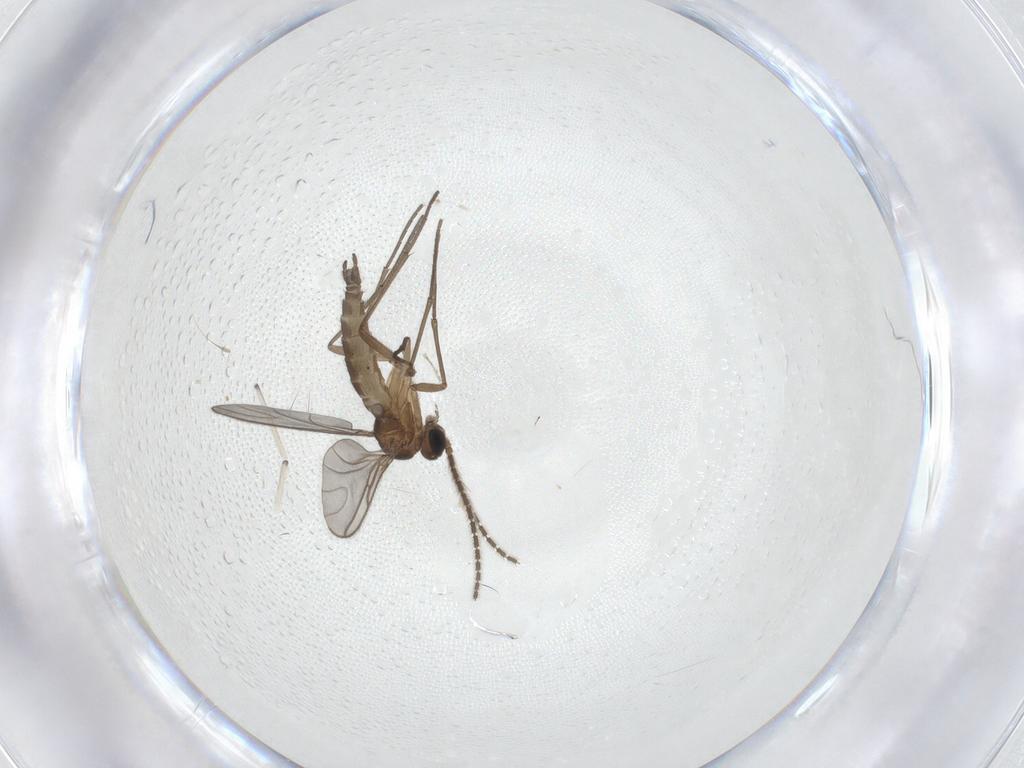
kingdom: Animalia
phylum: Arthropoda
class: Insecta
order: Diptera
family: Sciaridae
